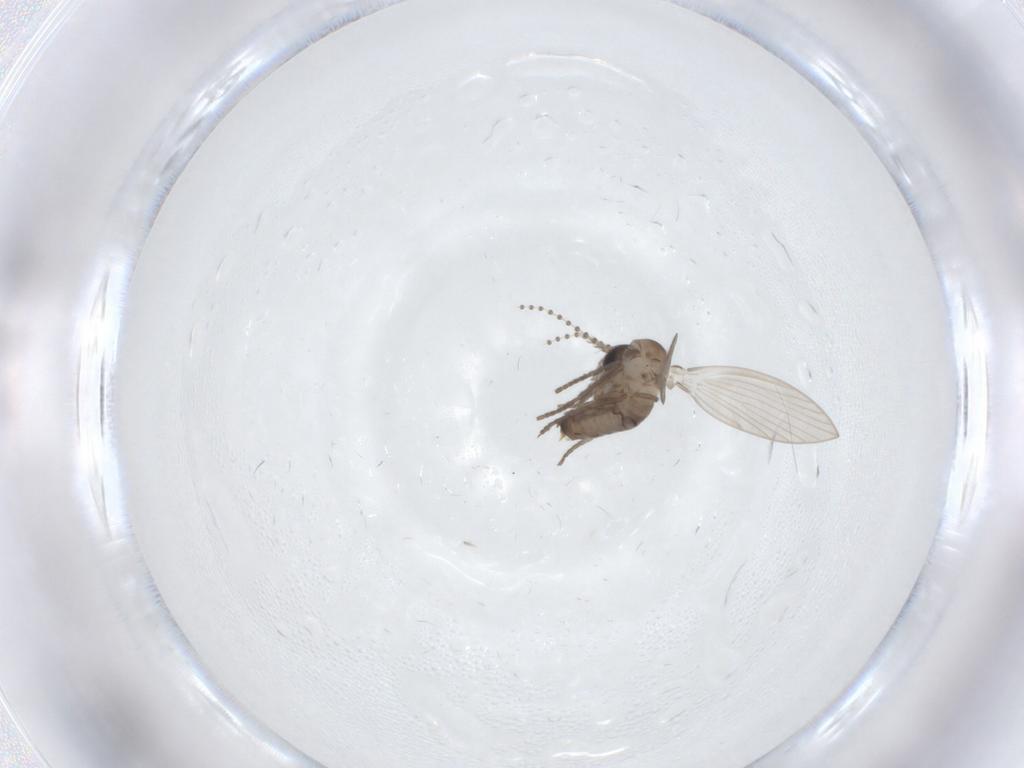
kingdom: Animalia
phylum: Arthropoda
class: Insecta
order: Diptera
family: Psychodidae
